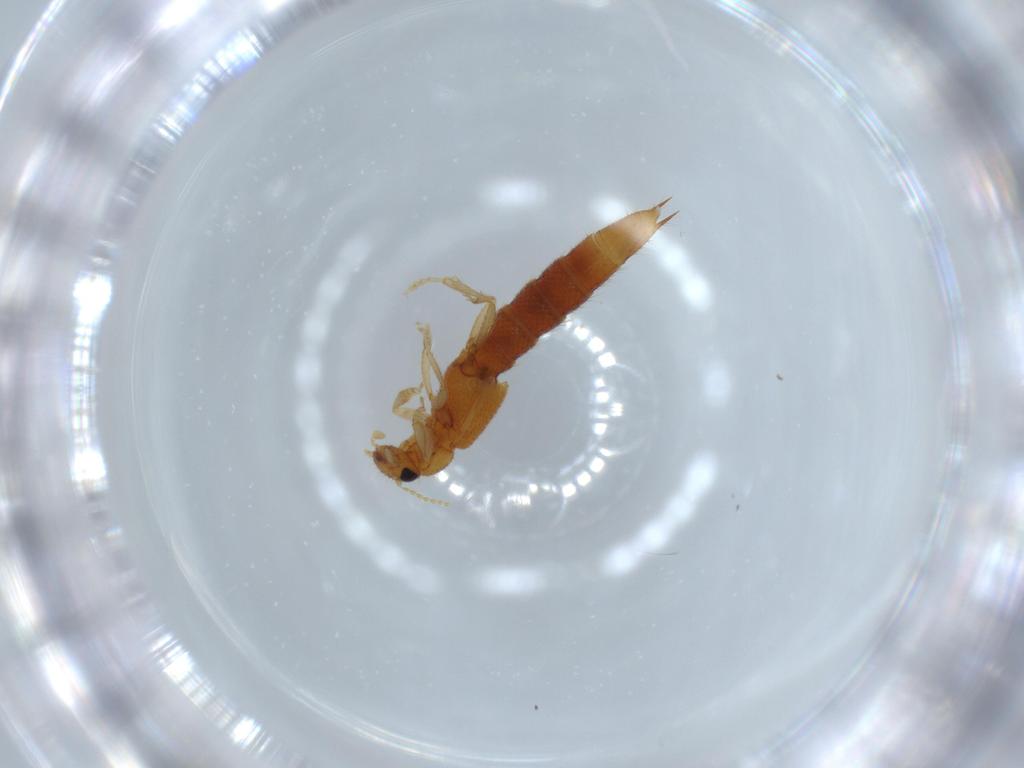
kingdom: Animalia
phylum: Arthropoda
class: Insecta
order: Coleoptera
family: Staphylinidae
